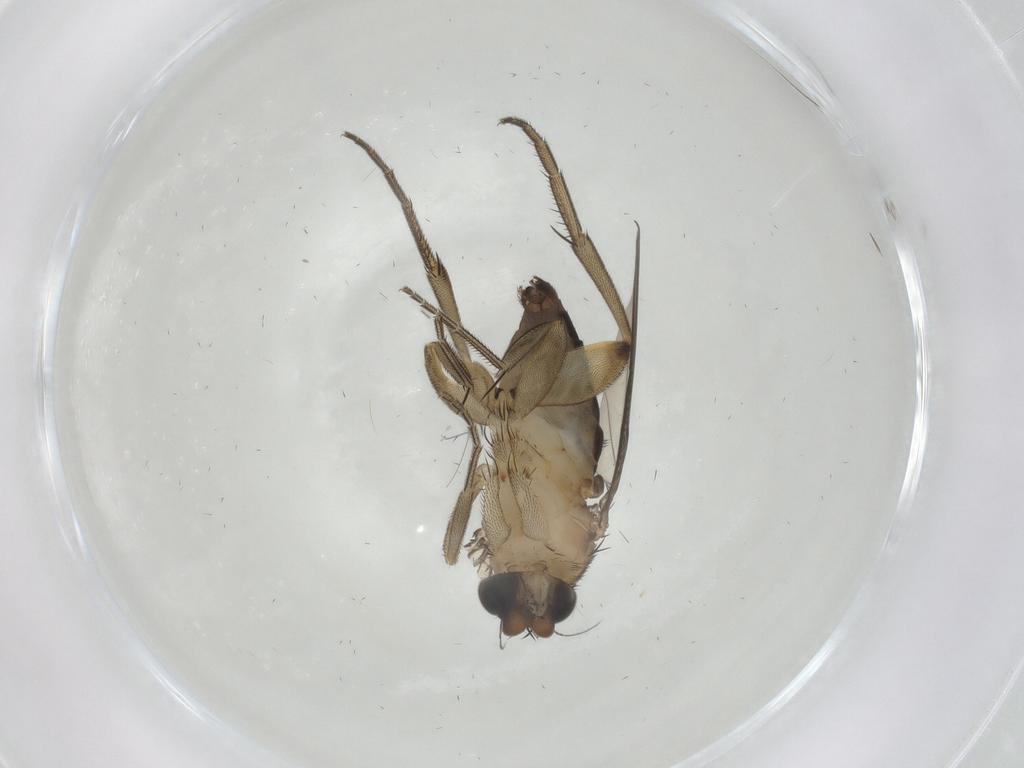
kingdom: Animalia
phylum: Arthropoda
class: Insecta
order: Diptera
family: Phoridae
